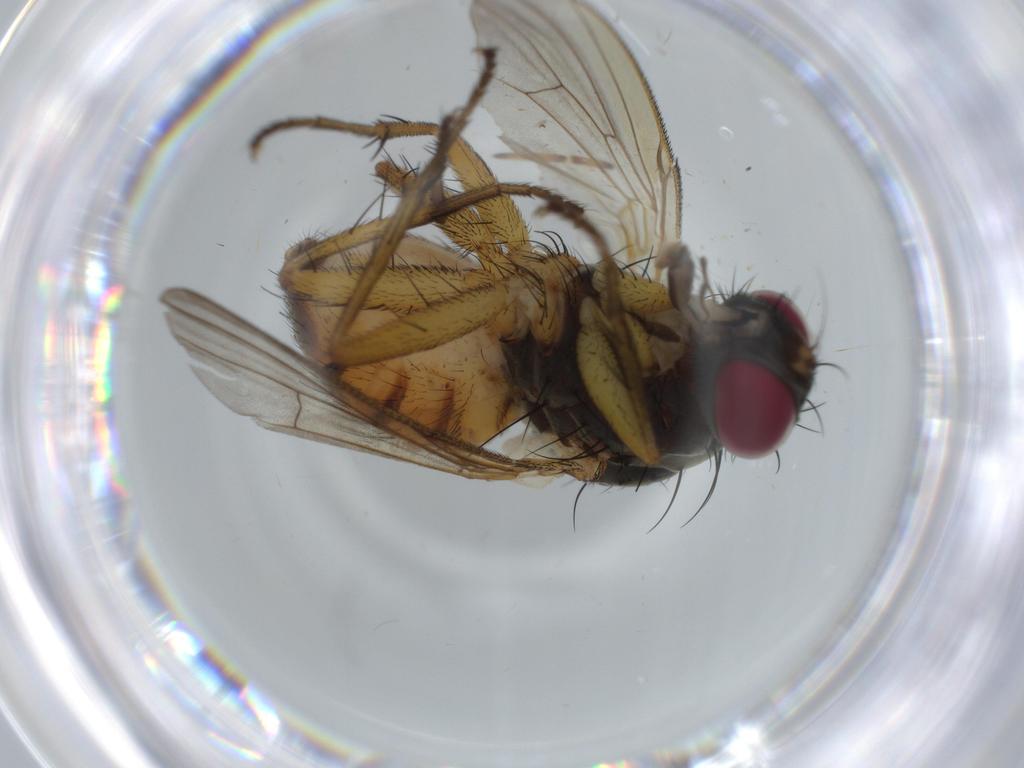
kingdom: Animalia
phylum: Arthropoda
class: Insecta
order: Diptera
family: Muscidae
